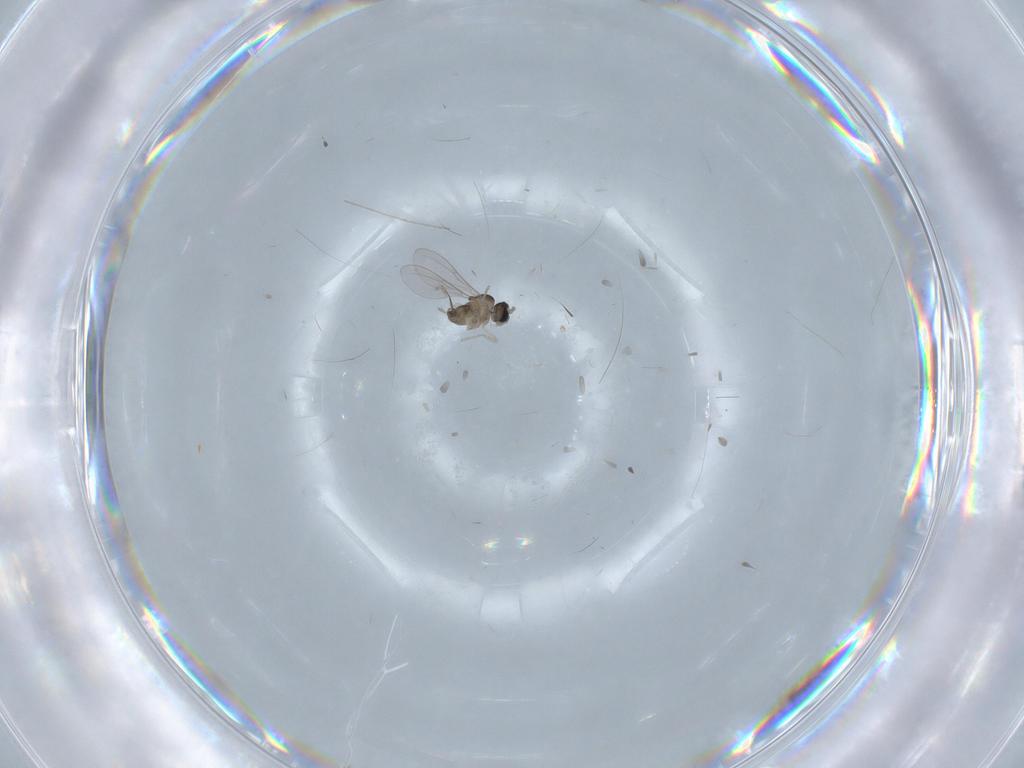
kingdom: Animalia
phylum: Arthropoda
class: Insecta
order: Diptera
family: Cecidomyiidae
